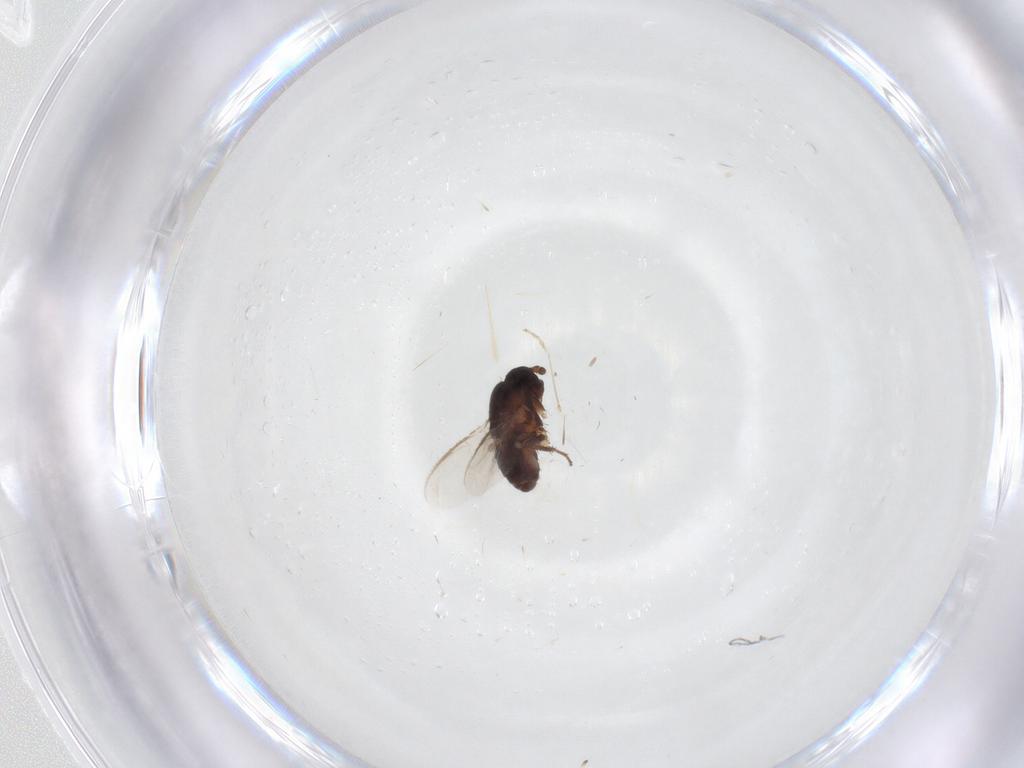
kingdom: Animalia
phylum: Arthropoda
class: Insecta
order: Diptera
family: Sphaeroceridae
